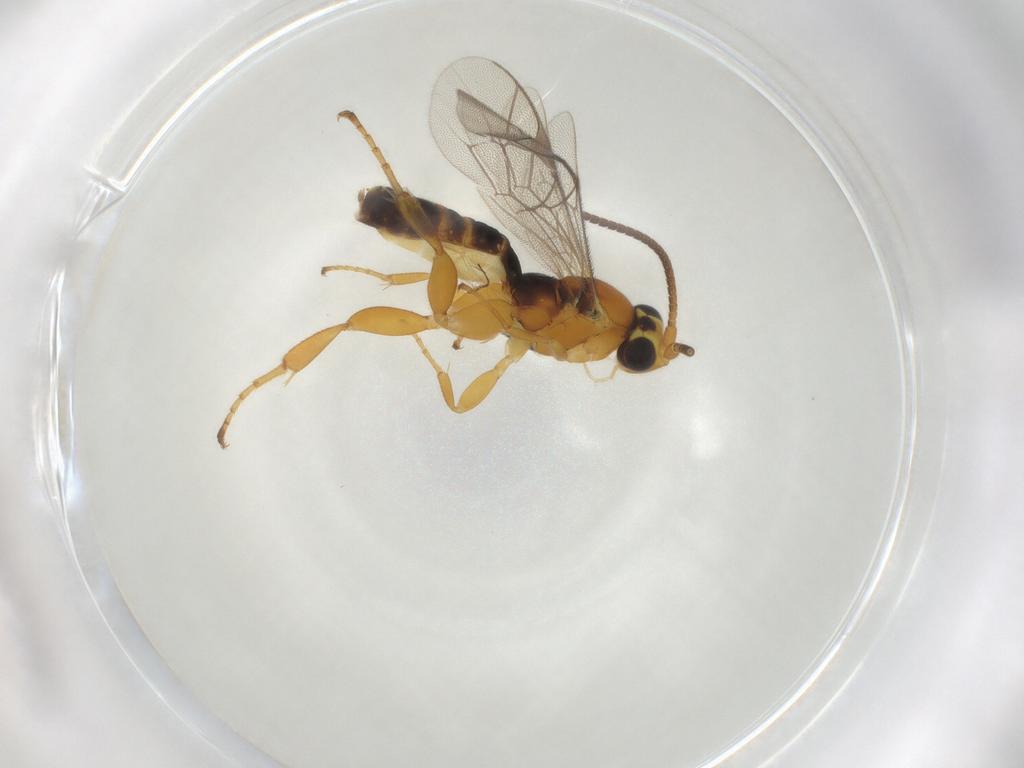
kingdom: Animalia
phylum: Arthropoda
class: Insecta
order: Hymenoptera
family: Ichneumonidae
